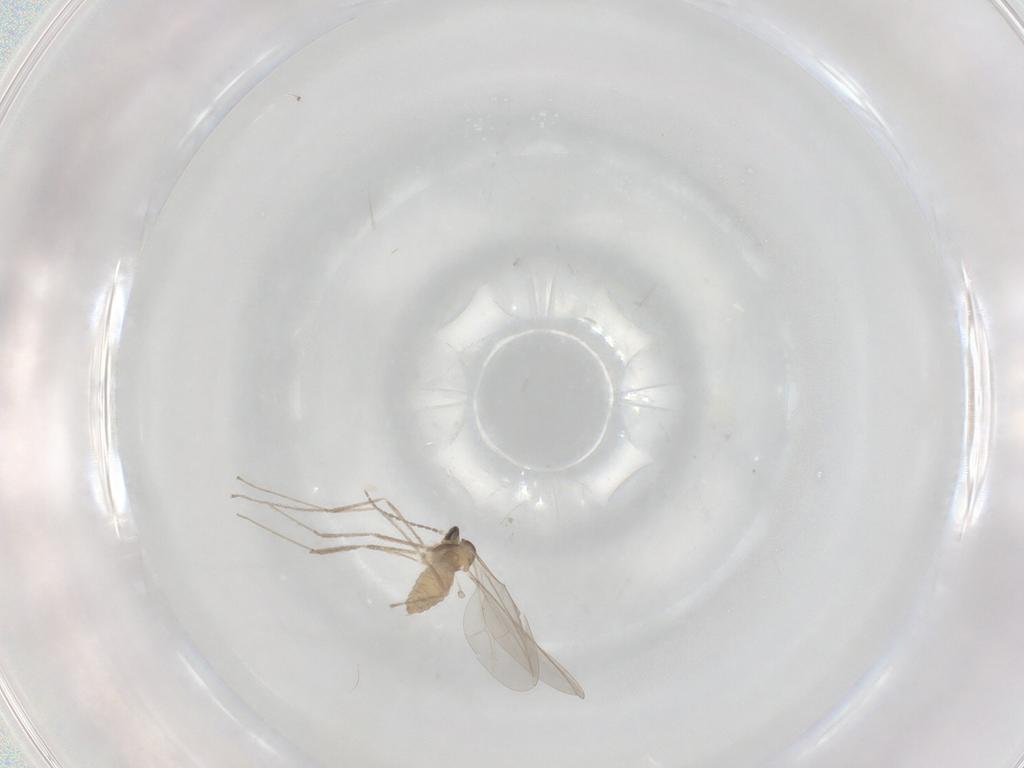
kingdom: Animalia
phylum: Arthropoda
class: Insecta
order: Diptera
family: Cecidomyiidae
